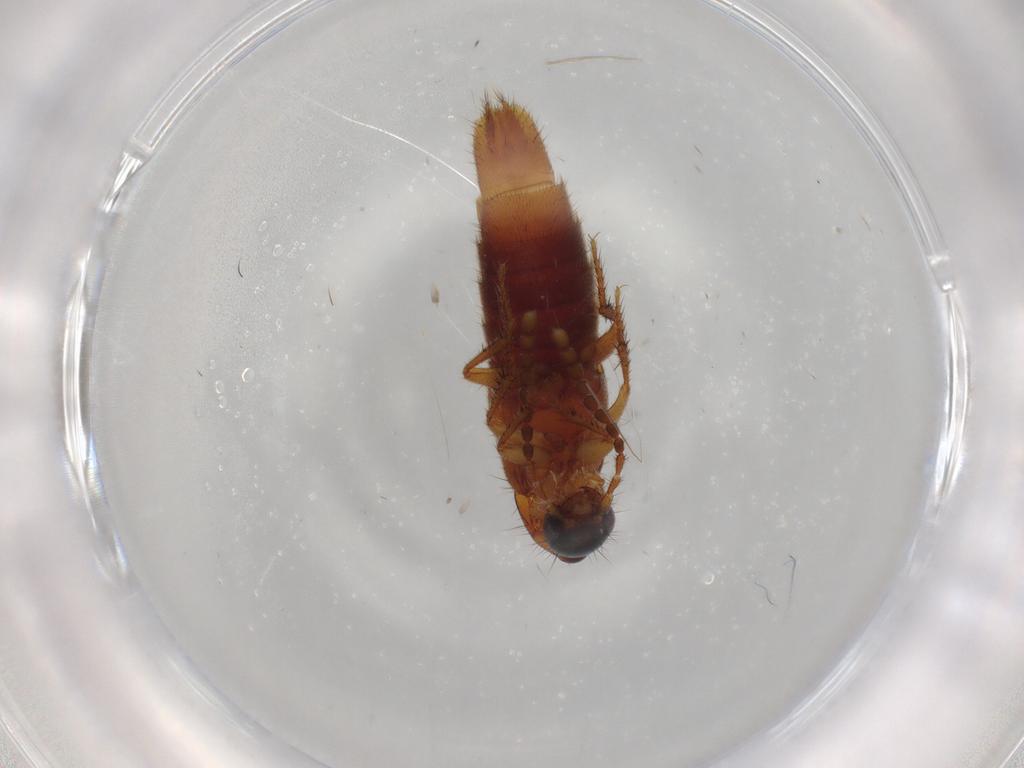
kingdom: Animalia
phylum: Arthropoda
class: Insecta
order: Coleoptera
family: Staphylinidae
